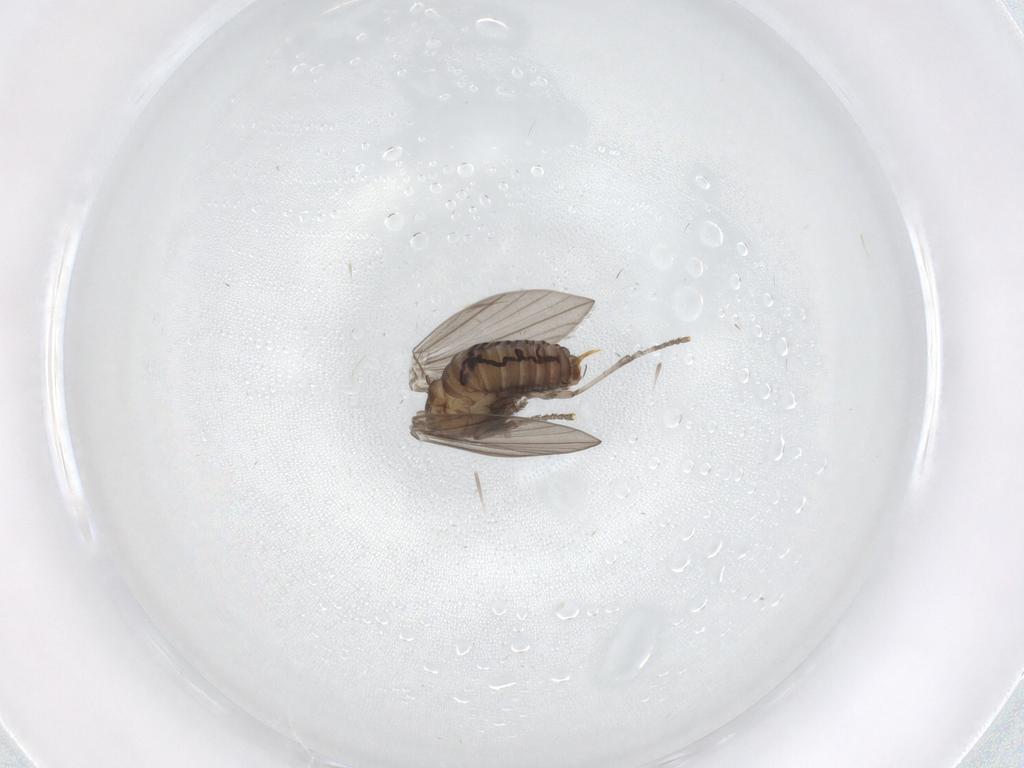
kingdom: Animalia
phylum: Arthropoda
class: Insecta
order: Diptera
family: Psychodidae
